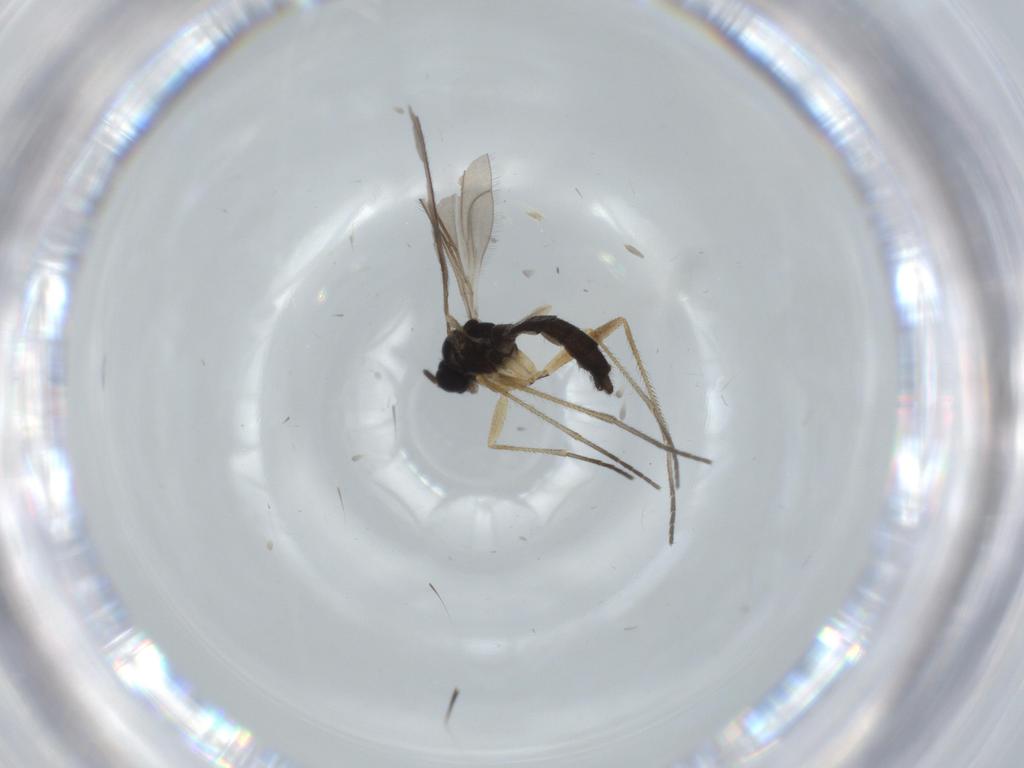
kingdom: Animalia
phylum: Arthropoda
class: Insecta
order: Diptera
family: Sciaridae
